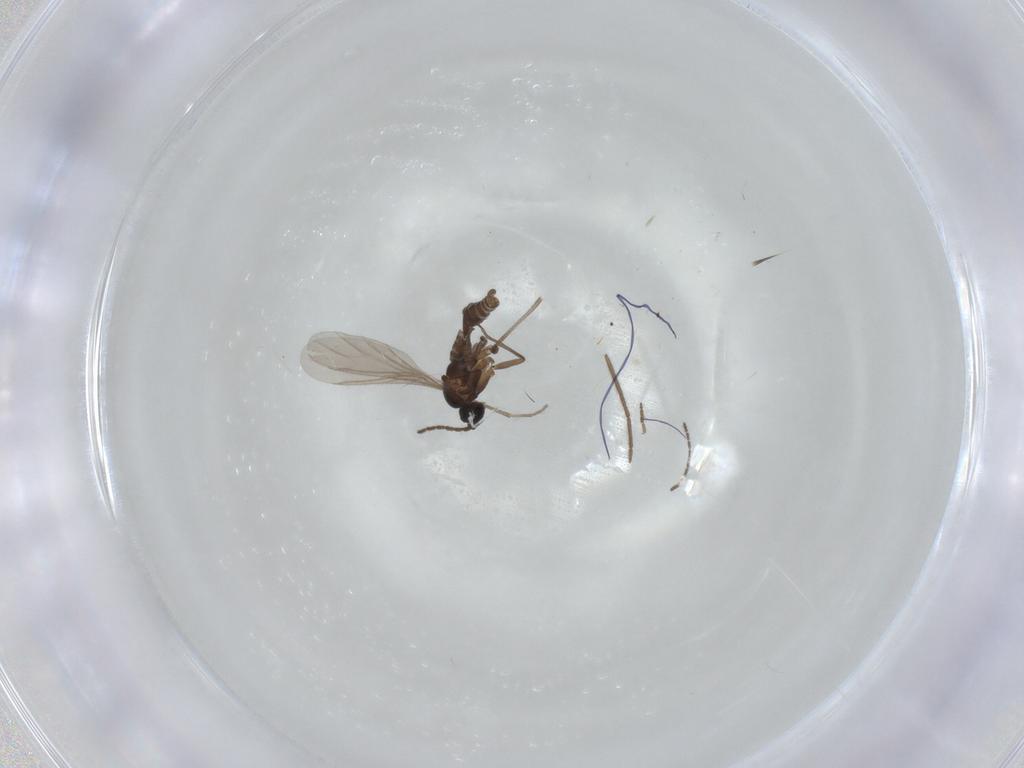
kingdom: Animalia
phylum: Arthropoda
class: Insecta
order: Diptera
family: Sciaridae
